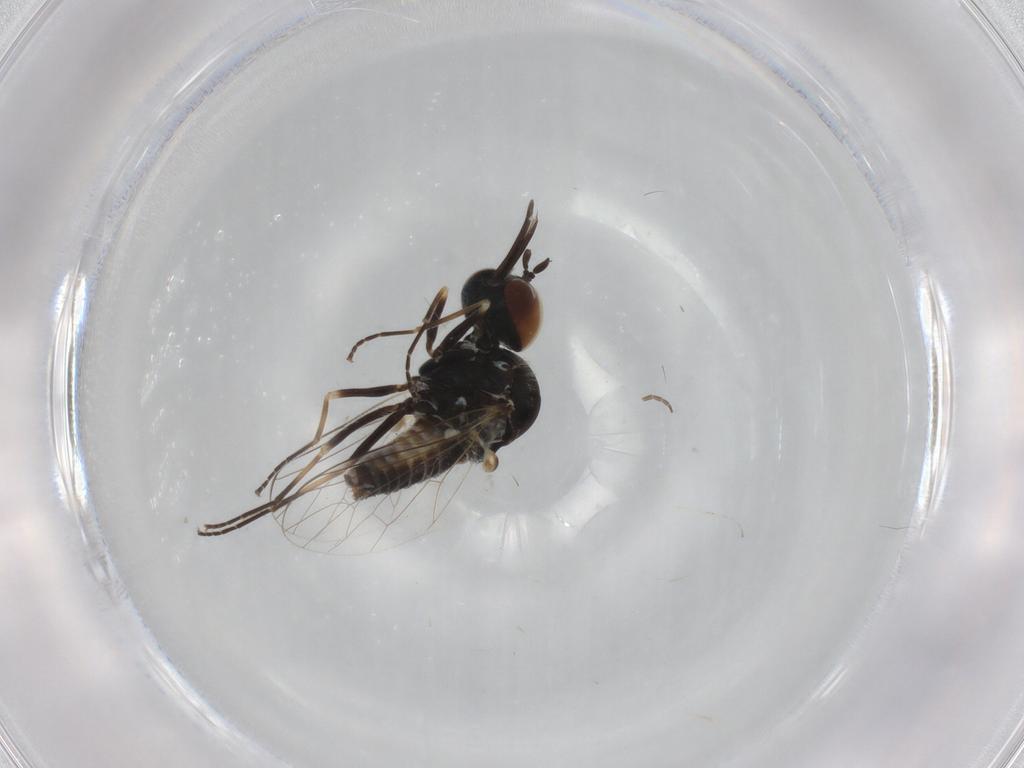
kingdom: Animalia
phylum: Arthropoda
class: Insecta
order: Diptera
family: Bombyliidae
